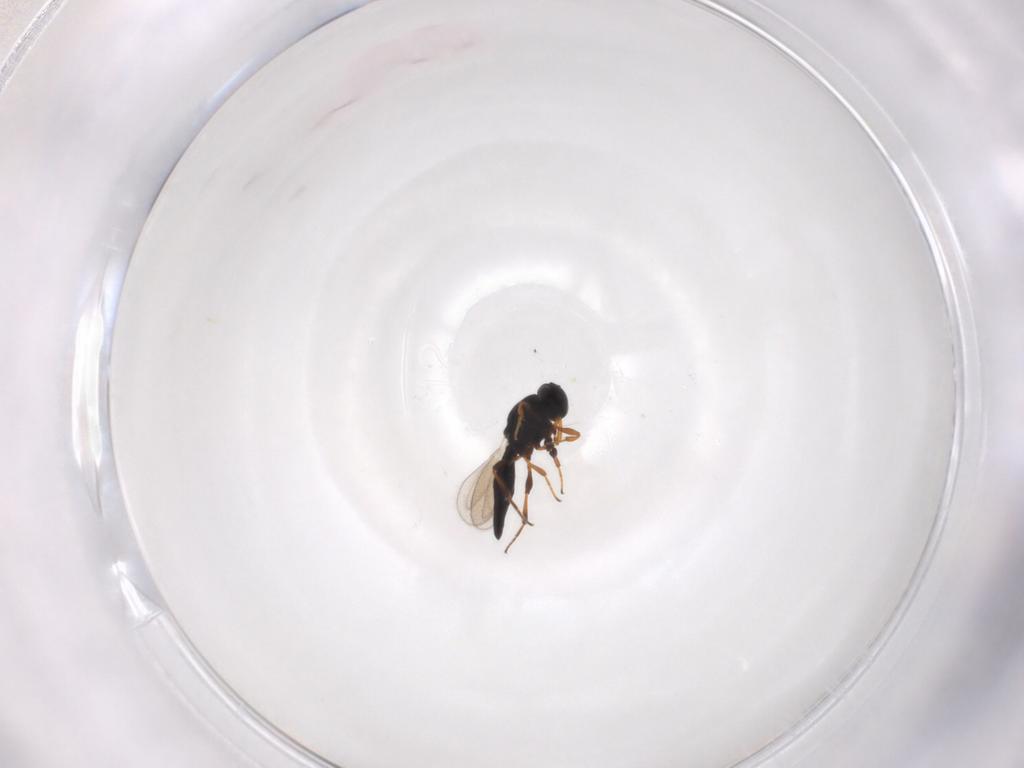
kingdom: Animalia
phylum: Arthropoda
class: Insecta
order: Hymenoptera
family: Platygastridae
